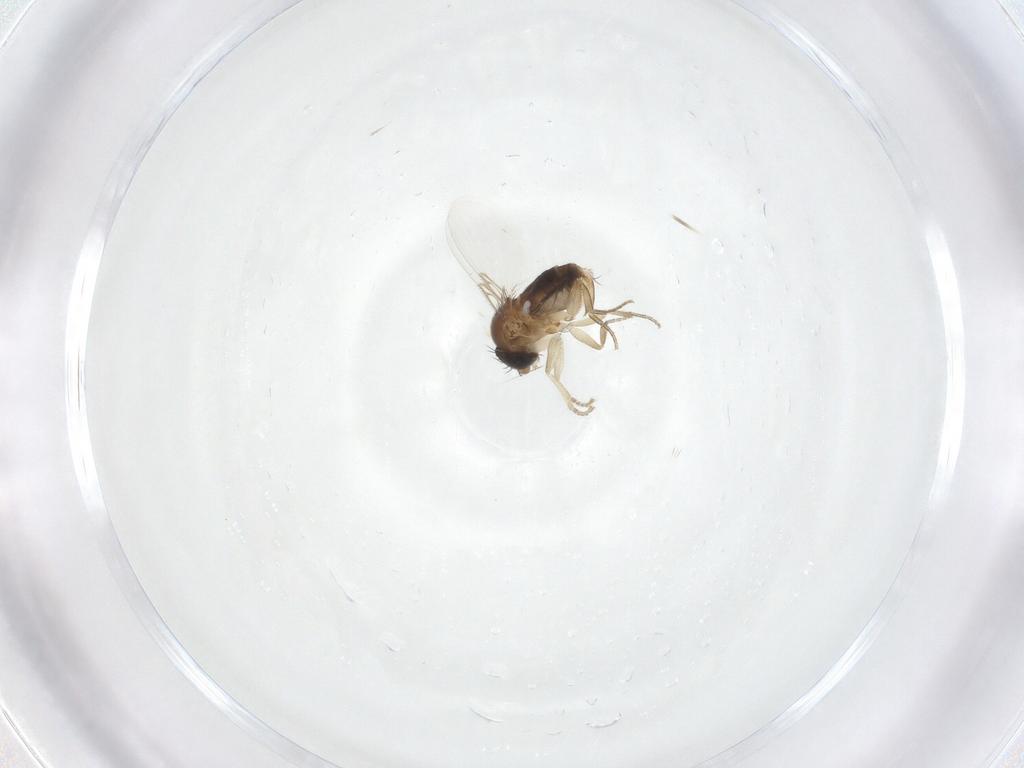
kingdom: Animalia
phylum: Arthropoda
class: Insecta
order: Diptera
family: Phoridae
